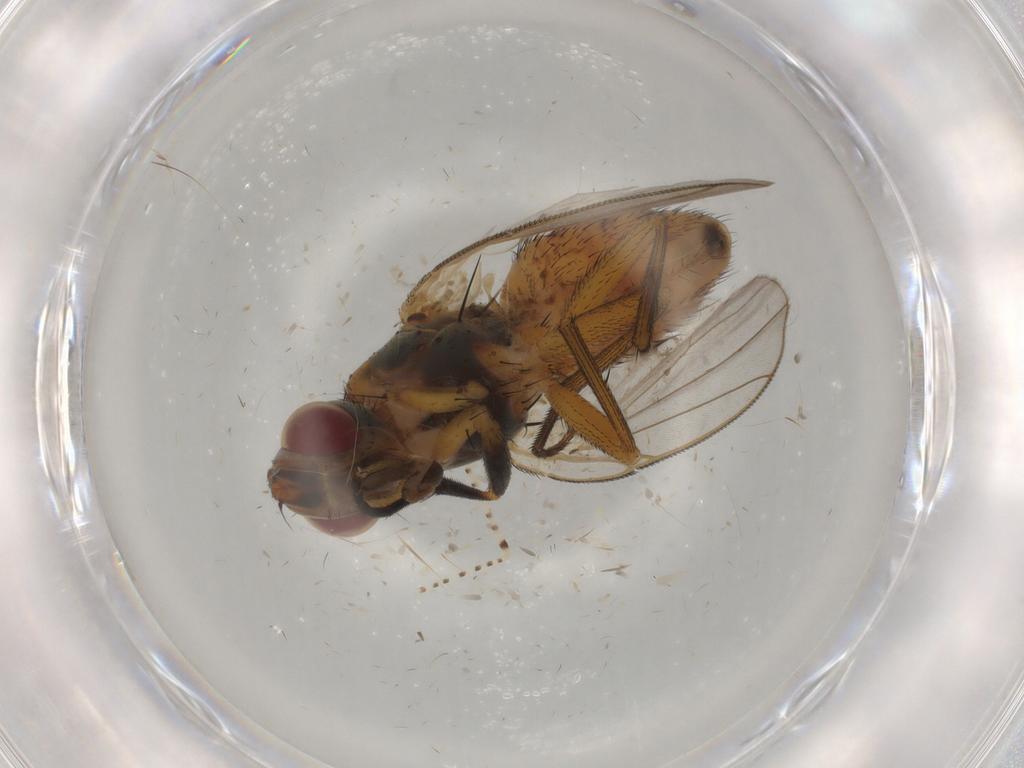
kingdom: Animalia
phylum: Arthropoda
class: Insecta
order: Diptera
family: Muscidae
